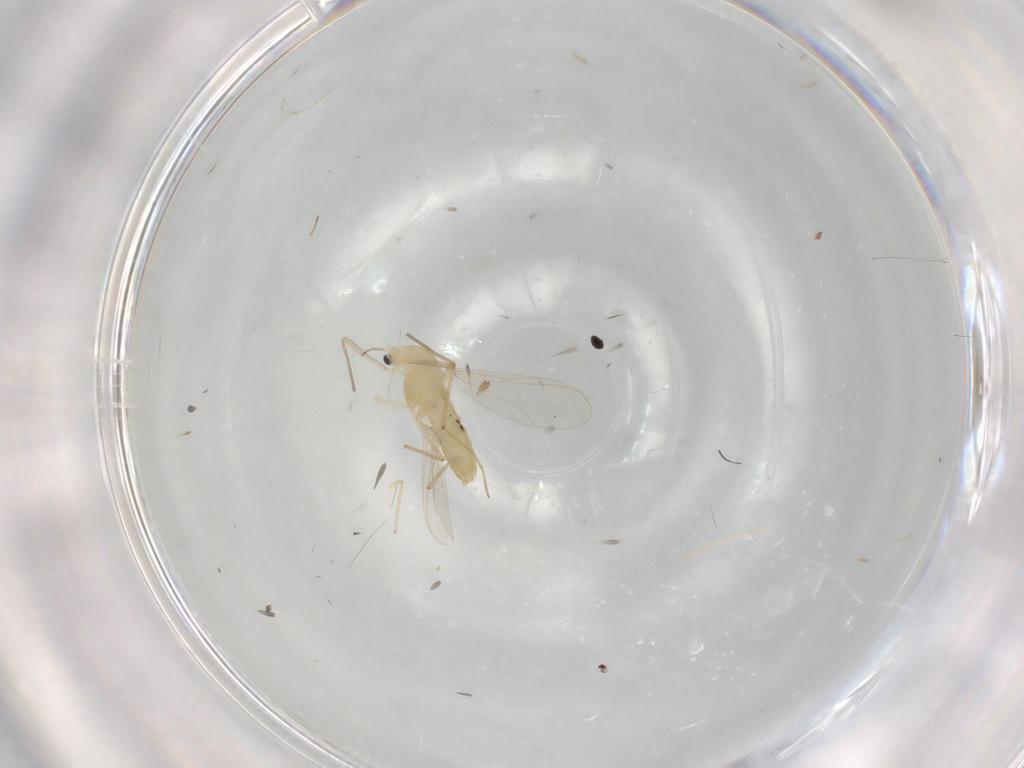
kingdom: Animalia
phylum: Arthropoda
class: Insecta
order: Diptera
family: Chironomidae
